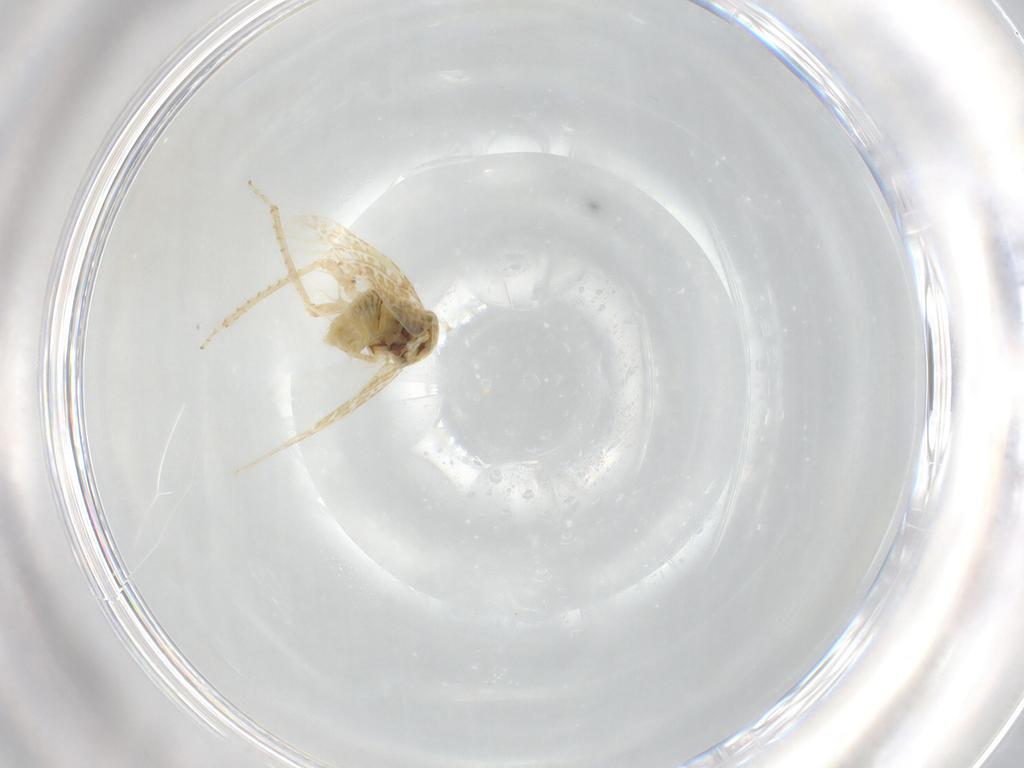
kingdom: Animalia
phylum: Arthropoda
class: Insecta
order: Hemiptera
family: Cicadellidae
